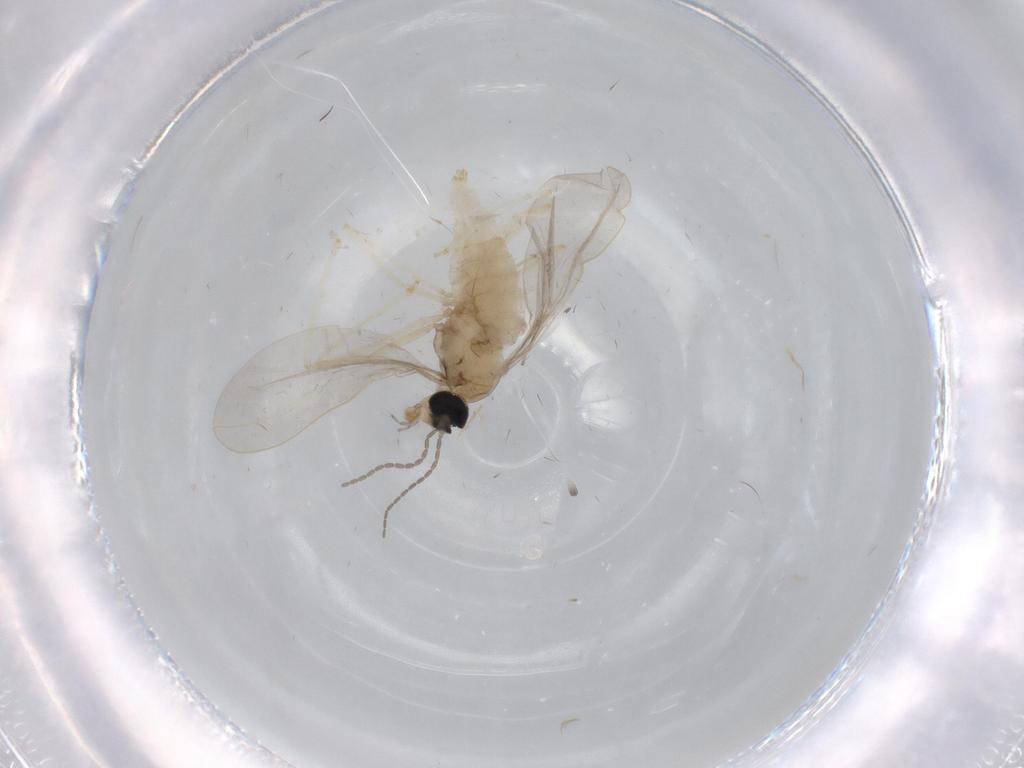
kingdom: Animalia
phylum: Arthropoda
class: Insecta
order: Diptera
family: Cecidomyiidae
